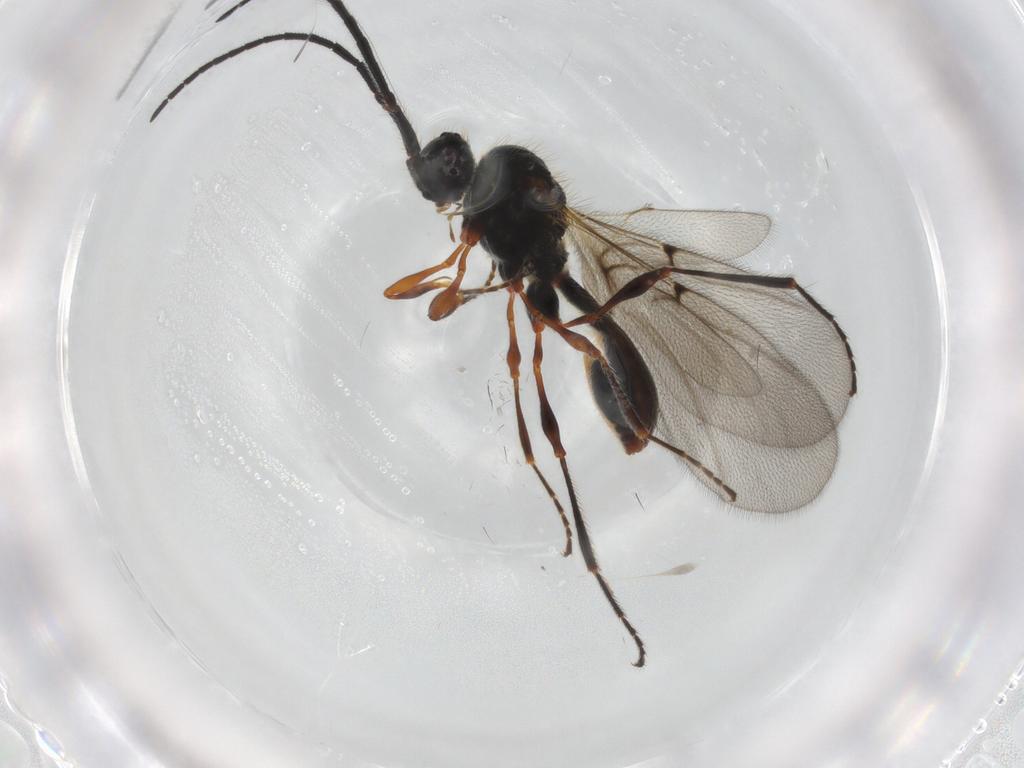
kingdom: Animalia
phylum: Arthropoda
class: Insecta
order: Hymenoptera
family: Diapriidae
